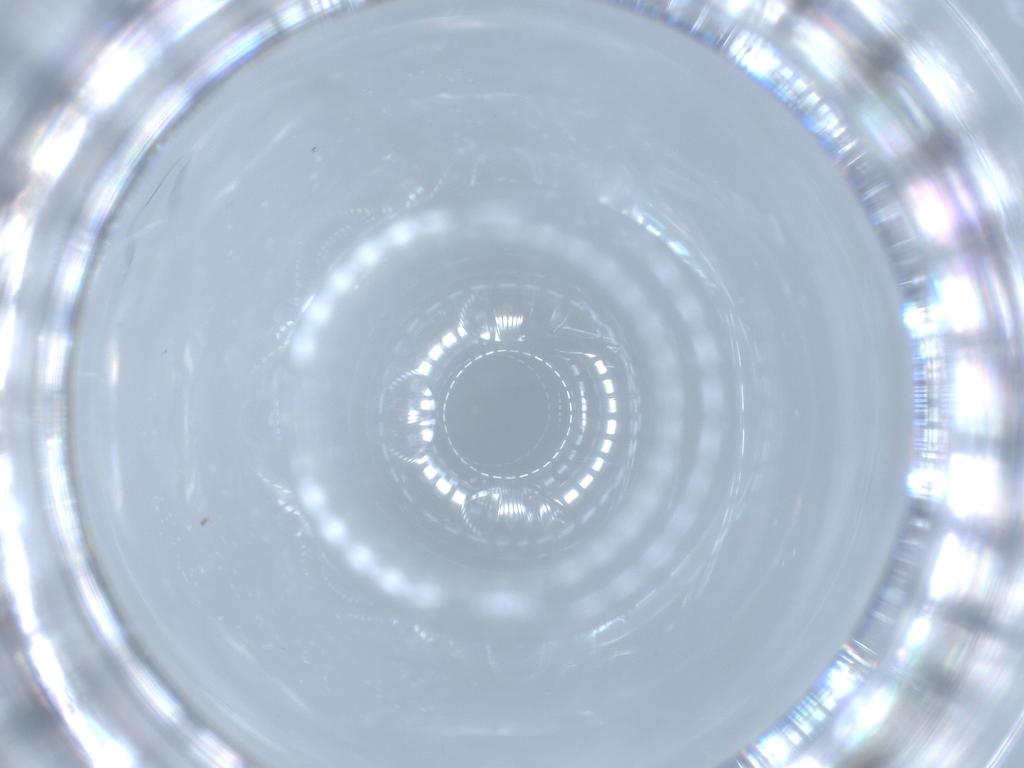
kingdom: Animalia
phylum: Arthropoda
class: Insecta
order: Diptera
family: Cecidomyiidae
